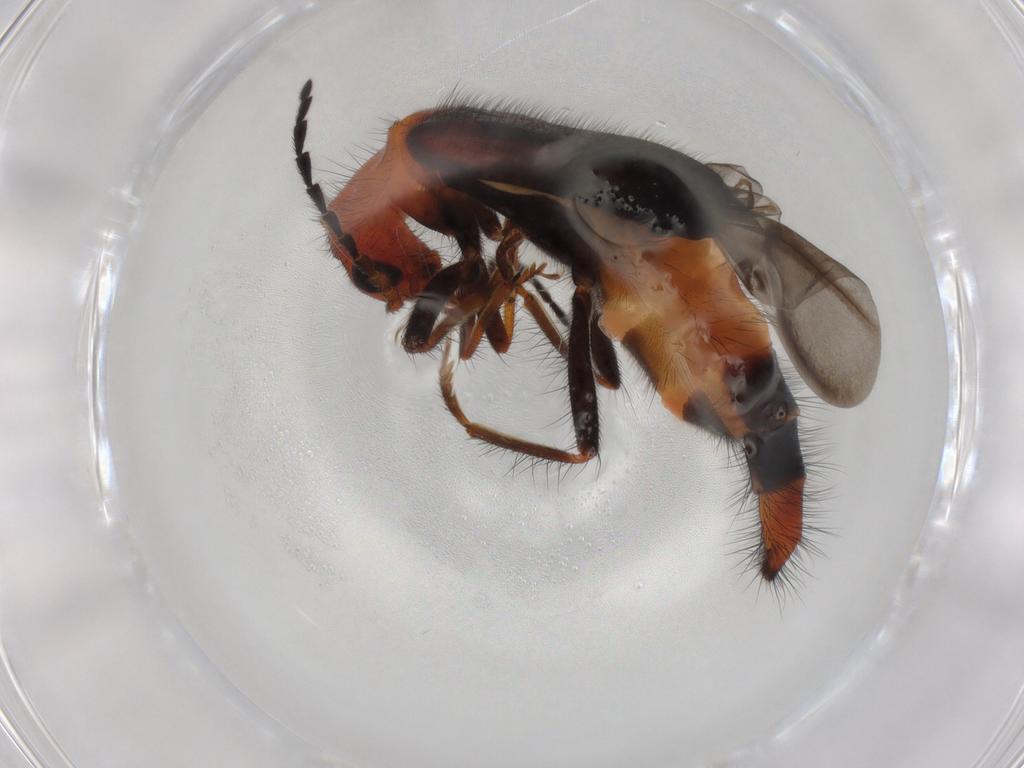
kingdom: Animalia
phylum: Arthropoda
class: Insecta
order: Coleoptera
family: Melyridae
